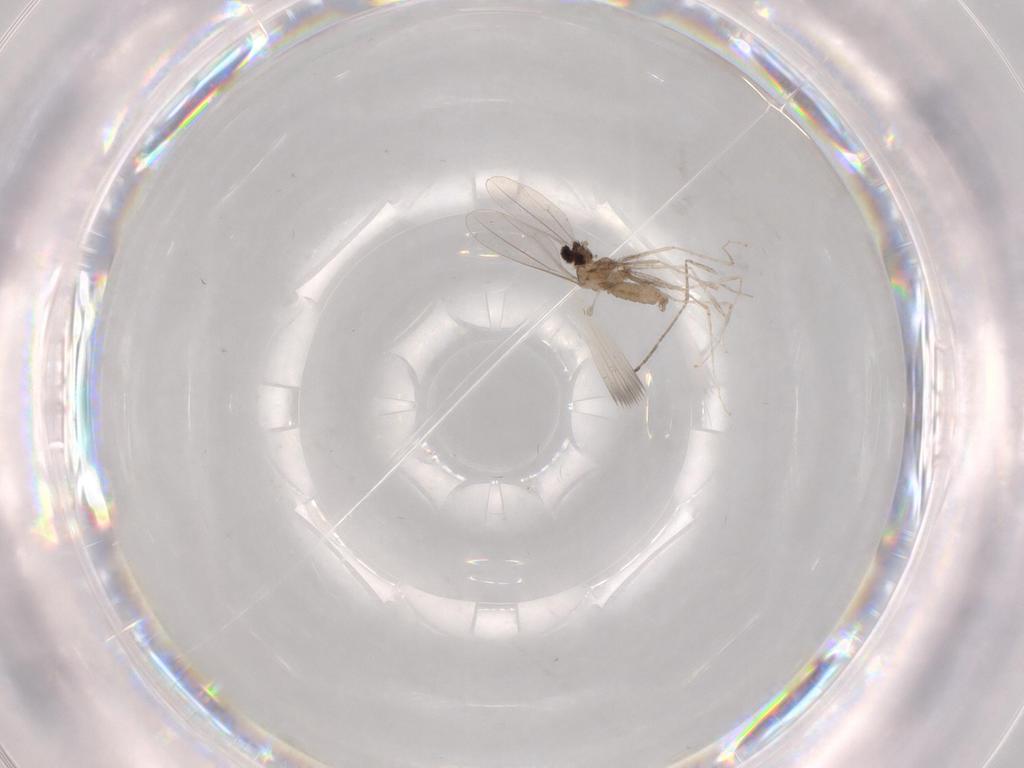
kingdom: Animalia
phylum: Arthropoda
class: Insecta
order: Diptera
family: Cecidomyiidae
